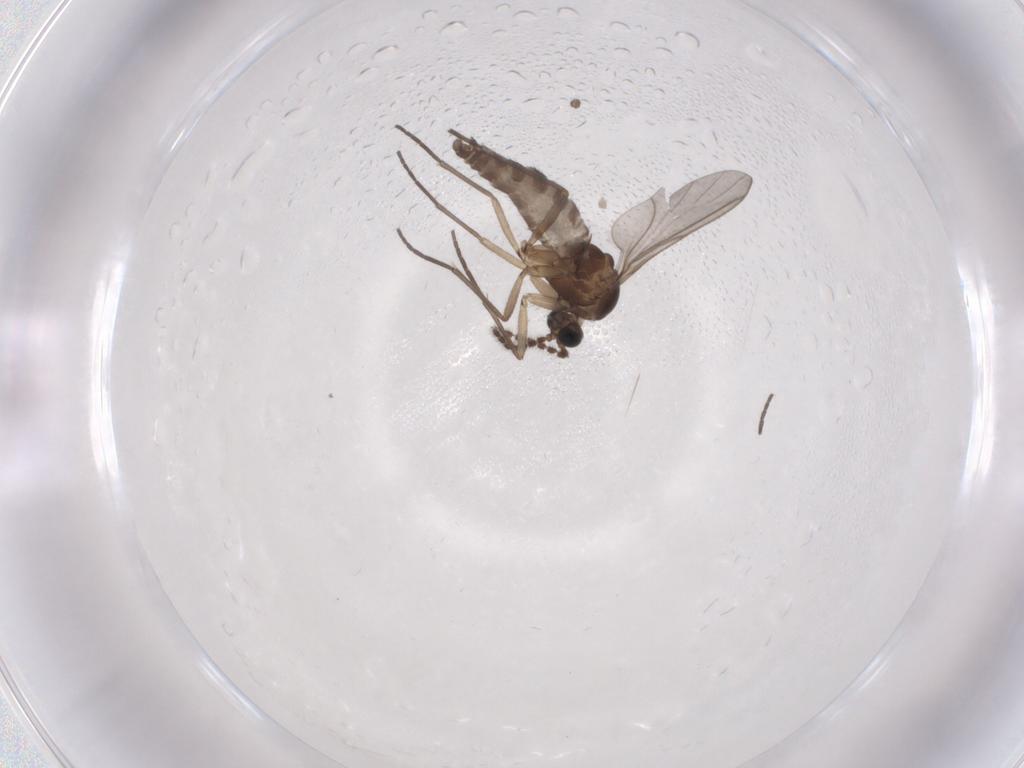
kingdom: Animalia
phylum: Arthropoda
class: Insecta
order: Diptera
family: Sciaridae
